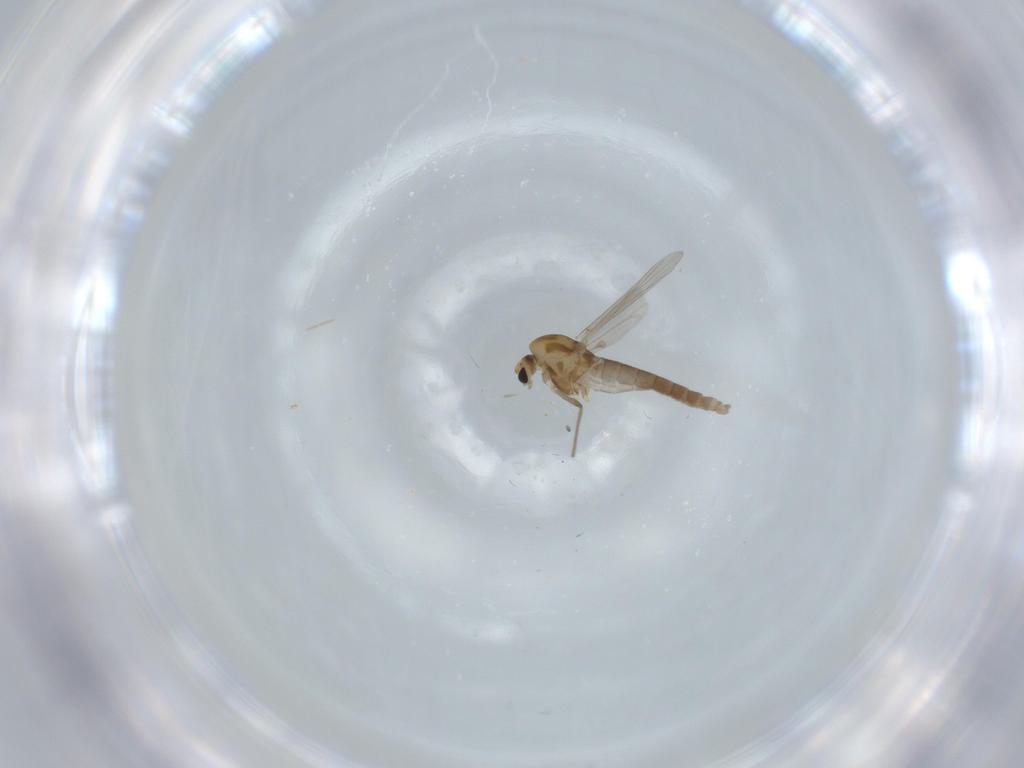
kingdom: Animalia
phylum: Arthropoda
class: Insecta
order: Diptera
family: Chironomidae
